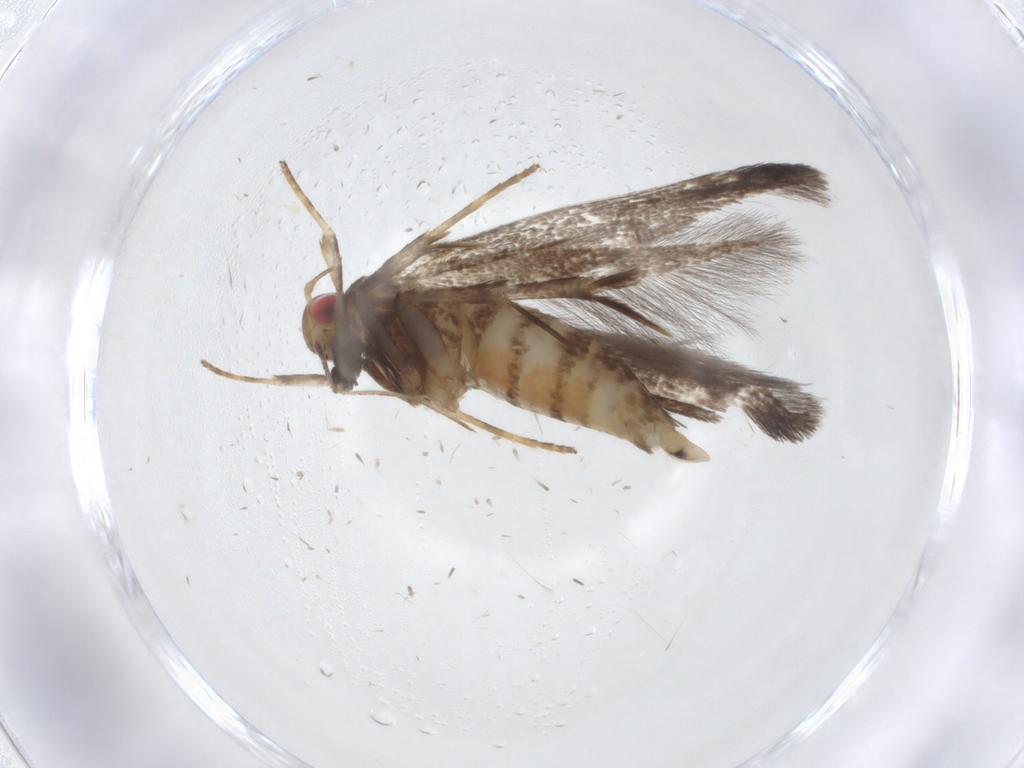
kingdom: Animalia
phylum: Arthropoda
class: Insecta
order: Lepidoptera
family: Gelechiidae
